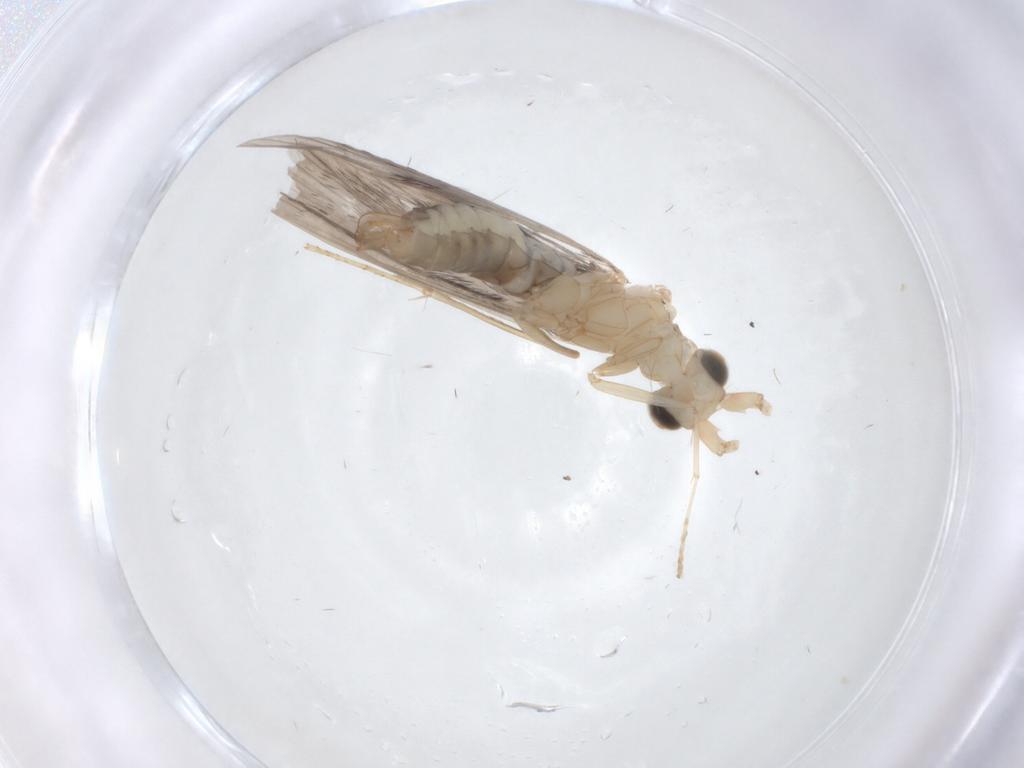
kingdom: Animalia
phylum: Arthropoda
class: Insecta
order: Trichoptera
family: Leptoceridae
